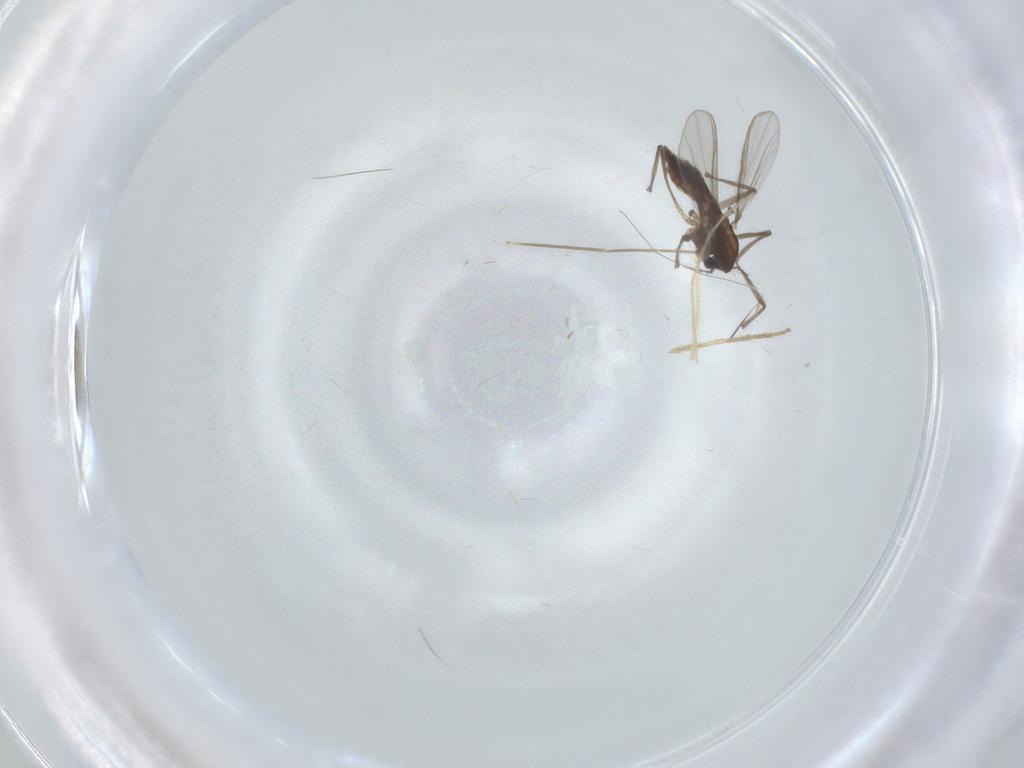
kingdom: Animalia
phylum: Arthropoda
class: Insecta
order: Diptera
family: Chironomidae
